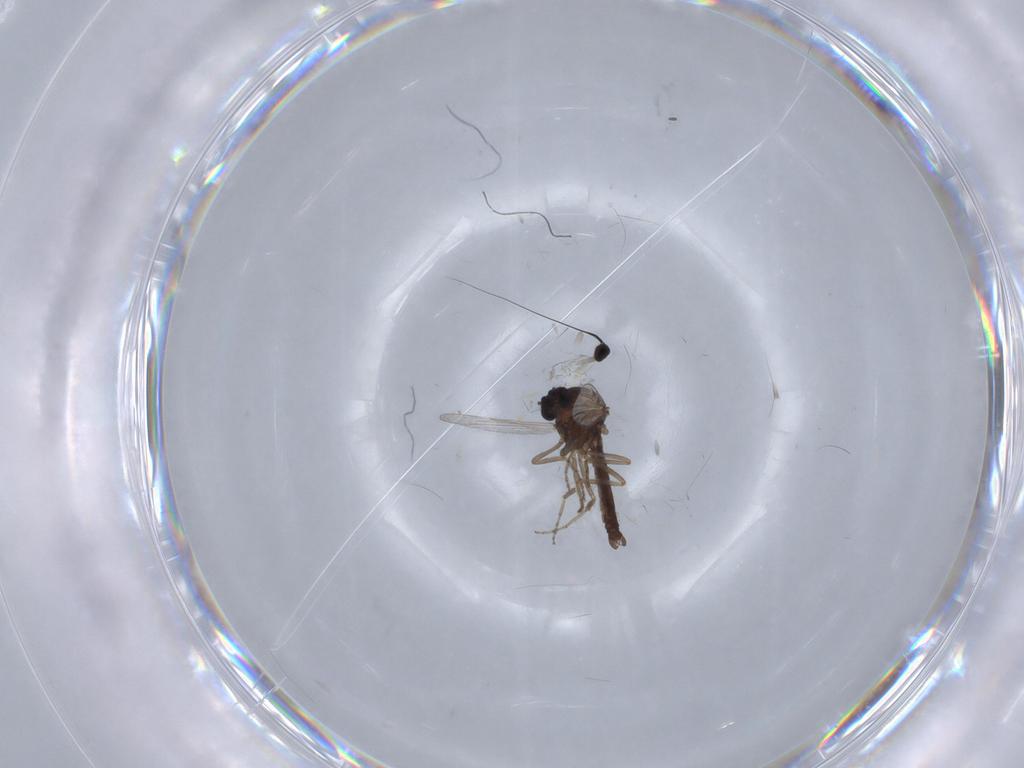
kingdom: Animalia
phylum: Arthropoda
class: Insecta
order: Diptera
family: Ceratopogonidae
